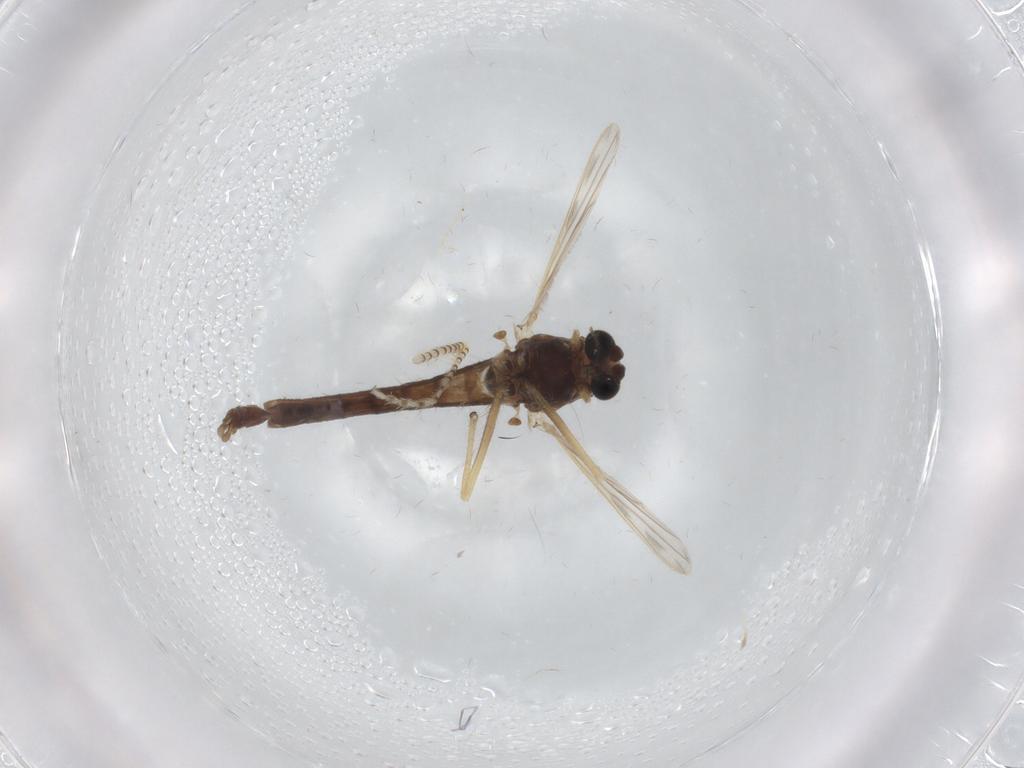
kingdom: Animalia
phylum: Arthropoda
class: Insecta
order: Diptera
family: Chironomidae
